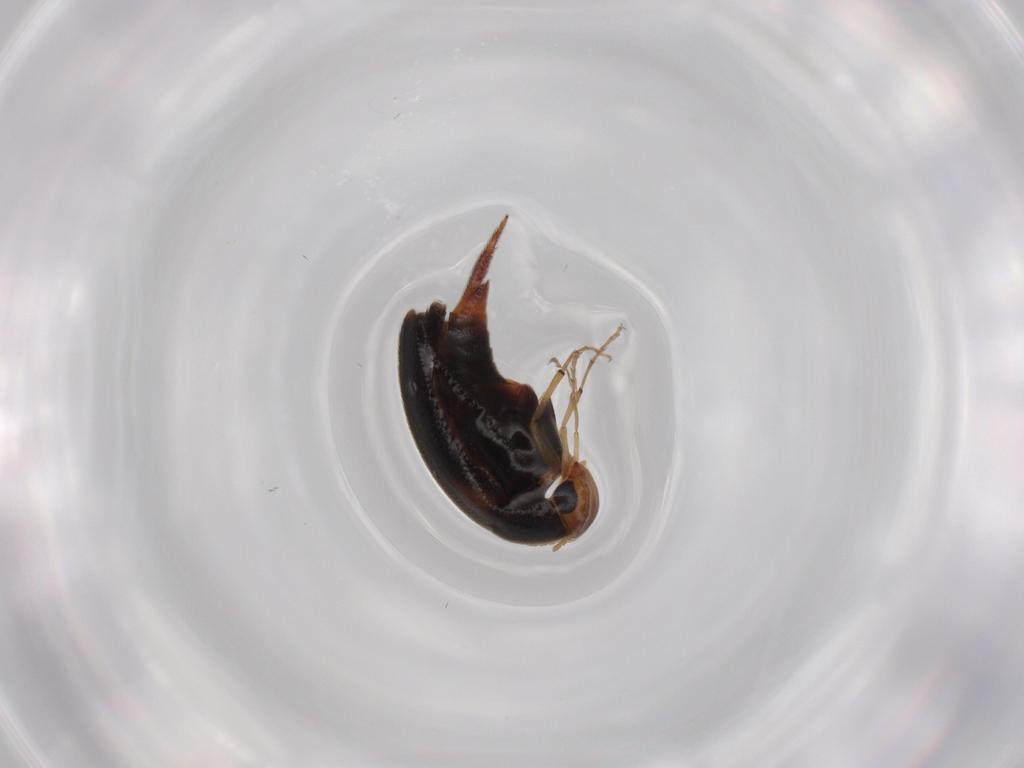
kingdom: Animalia
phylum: Arthropoda
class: Insecta
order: Coleoptera
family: Mordellidae
